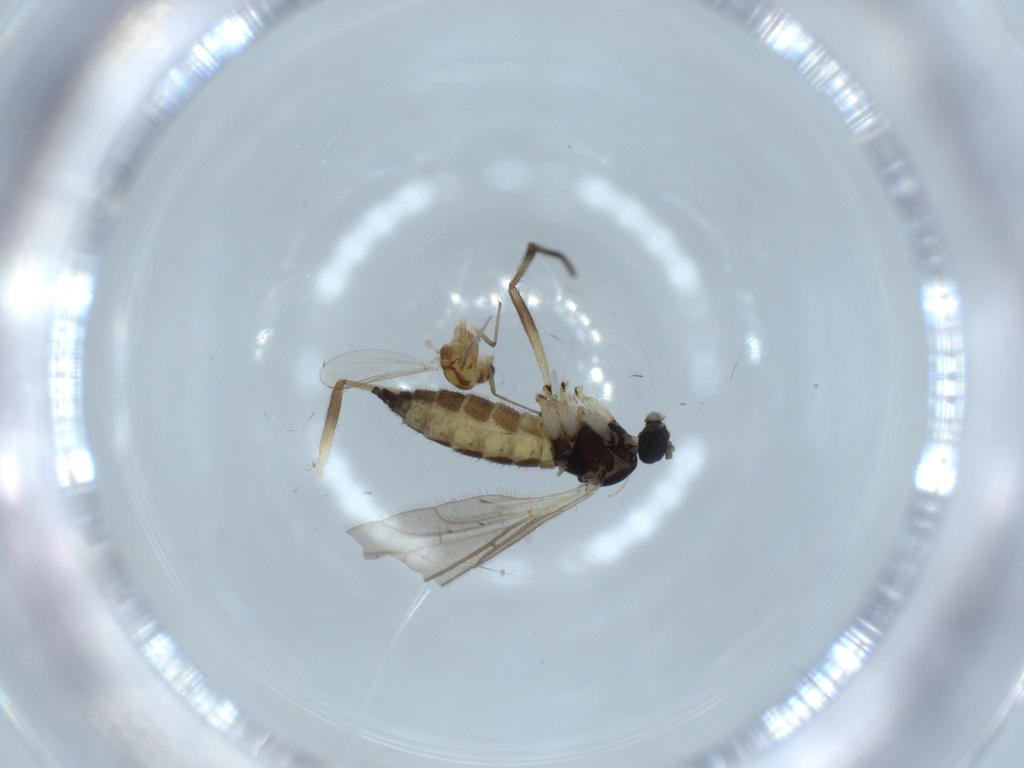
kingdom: Animalia
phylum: Arthropoda
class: Insecta
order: Diptera
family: Sciaridae
